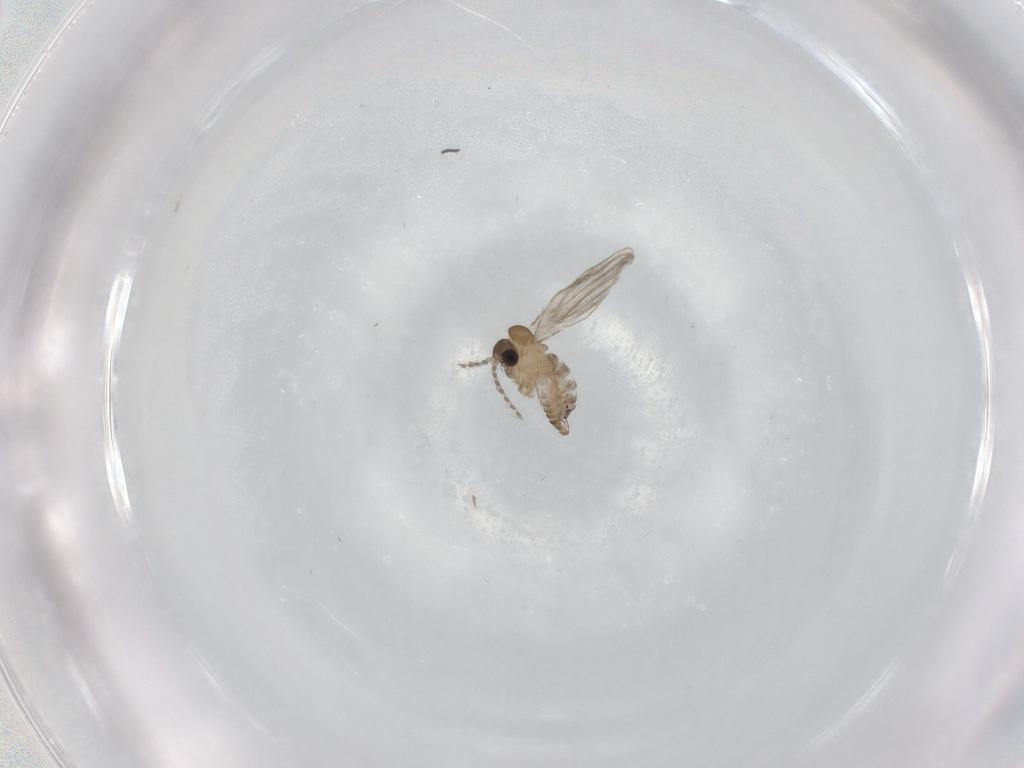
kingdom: Animalia
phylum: Arthropoda
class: Insecta
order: Diptera
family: Psychodidae
